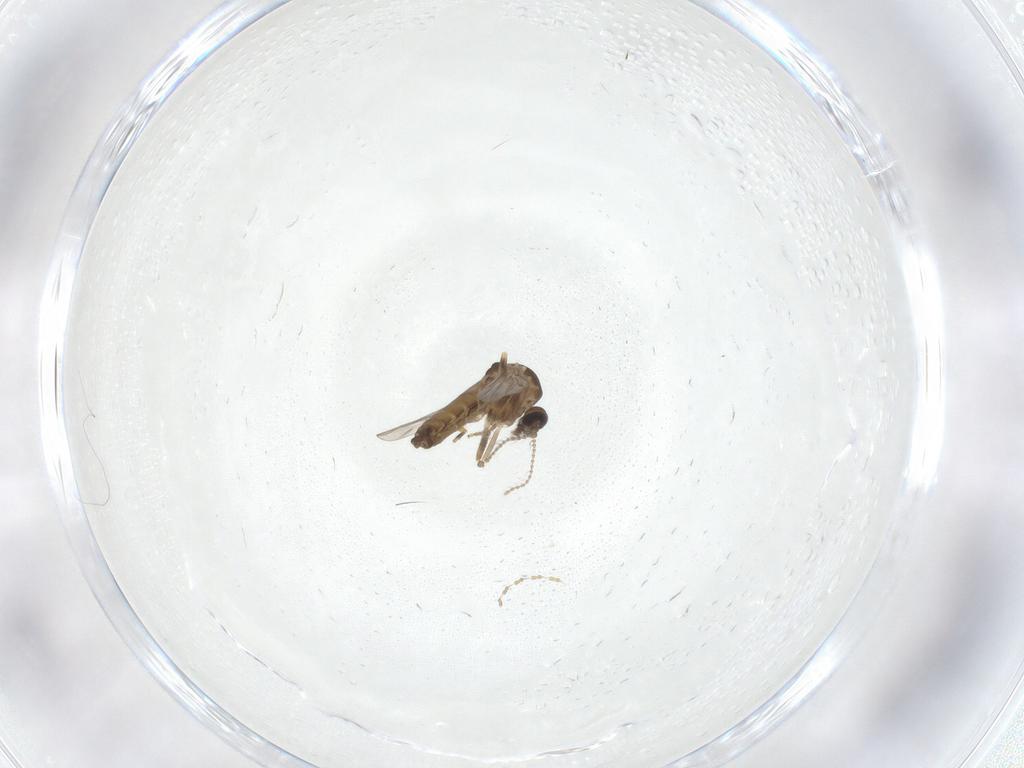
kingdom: Animalia
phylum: Arthropoda
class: Insecta
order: Diptera
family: Ceratopogonidae
